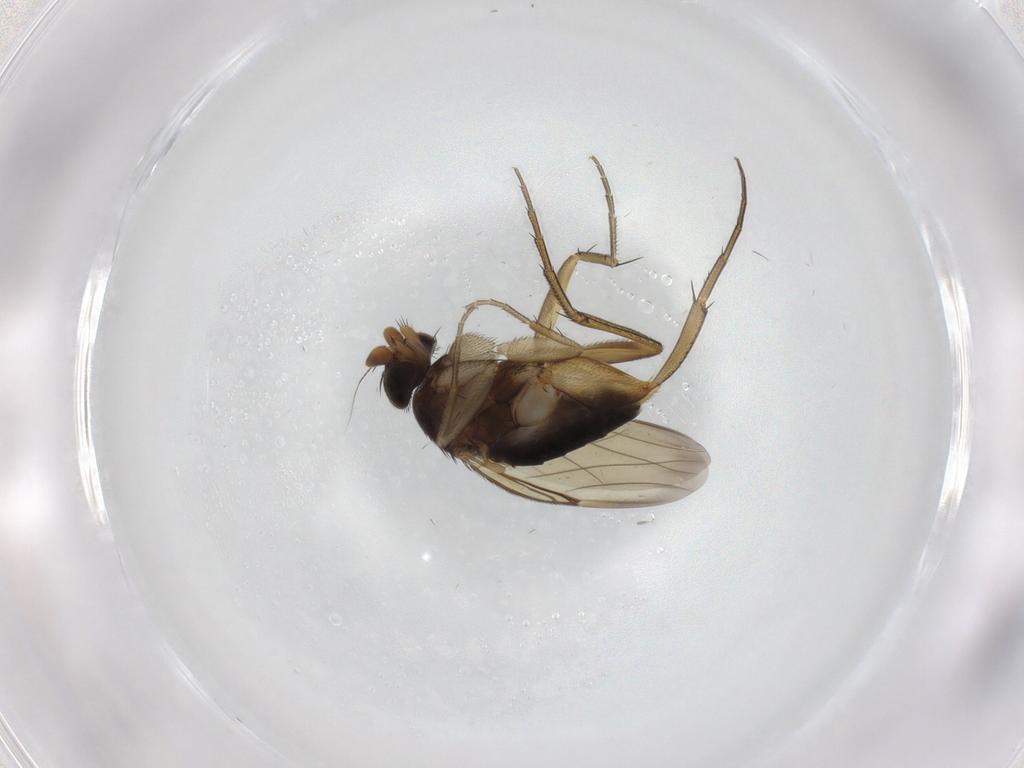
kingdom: Animalia
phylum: Arthropoda
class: Insecta
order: Diptera
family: Phoridae
